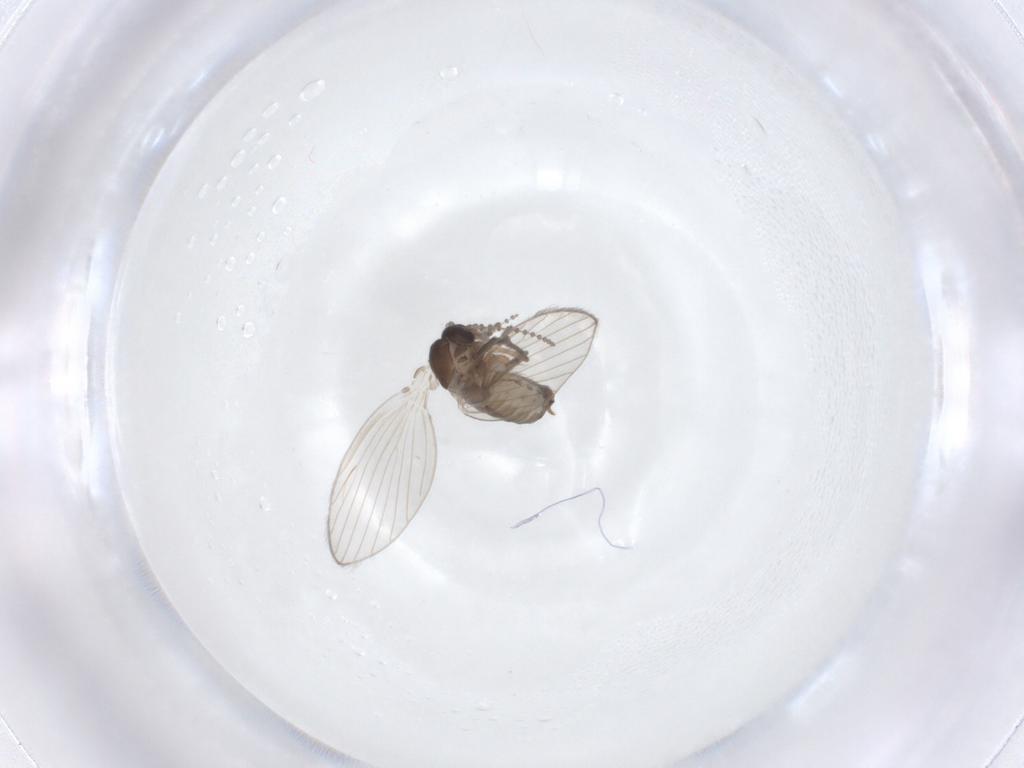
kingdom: Animalia
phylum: Arthropoda
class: Insecta
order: Diptera
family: Psychodidae
